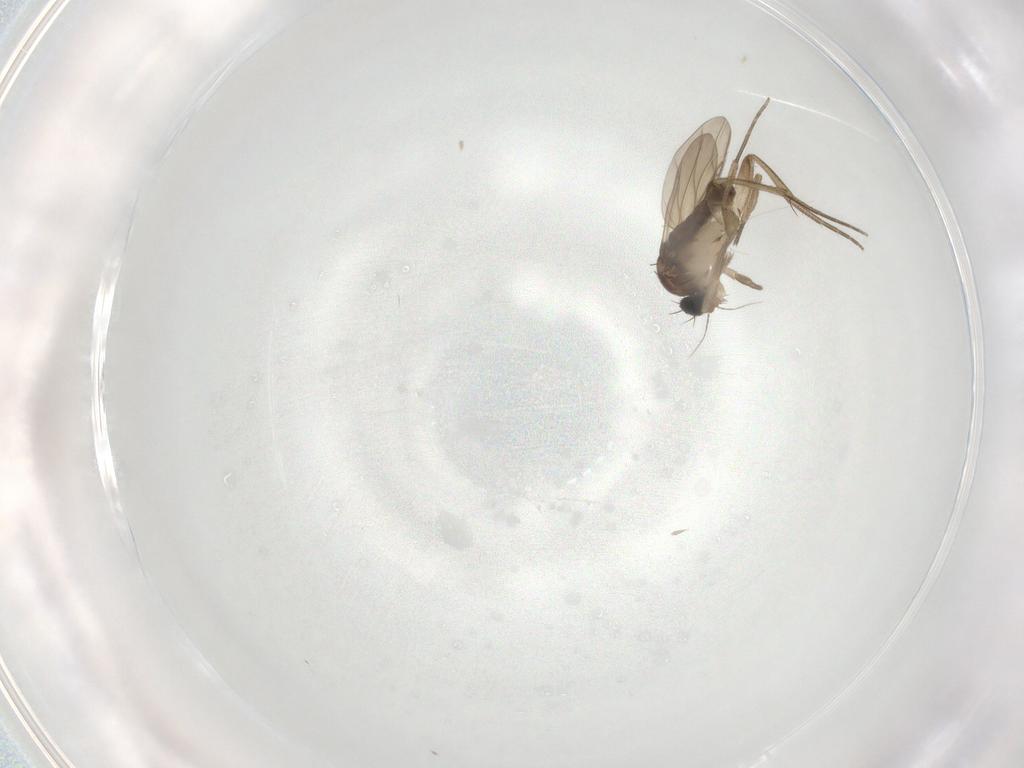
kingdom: Animalia
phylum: Arthropoda
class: Insecta
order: Diptera
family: Phoridae
